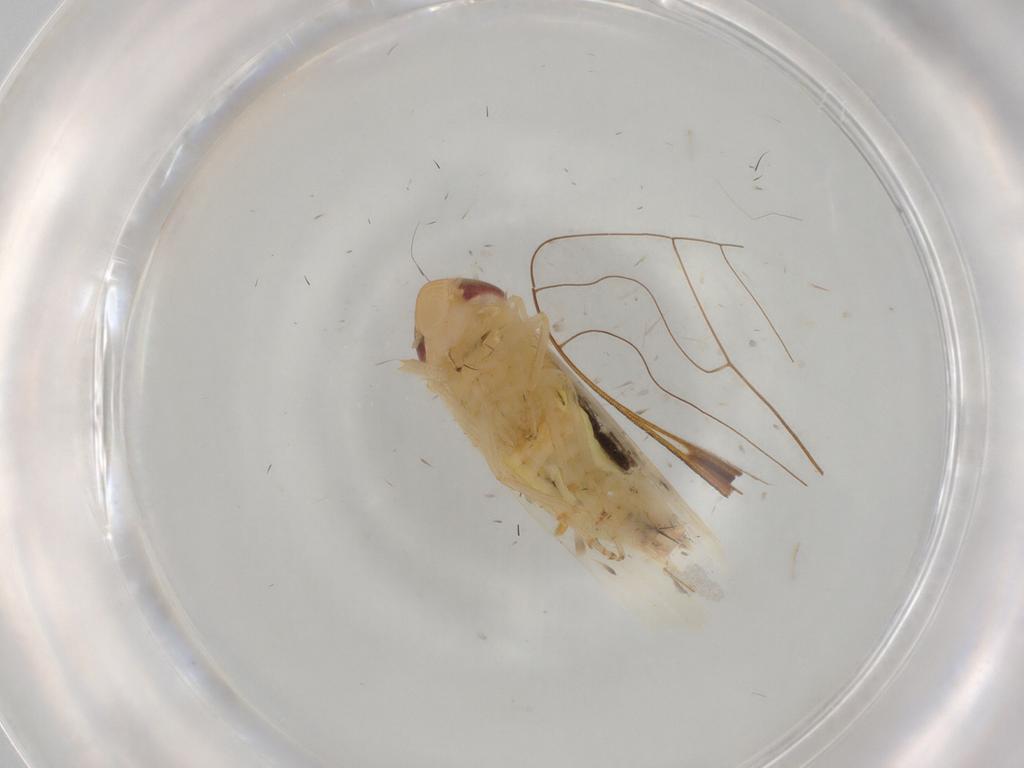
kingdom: Animalia
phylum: Arthropoda
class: Insecta
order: Hemiptera
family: Cicadellidae
